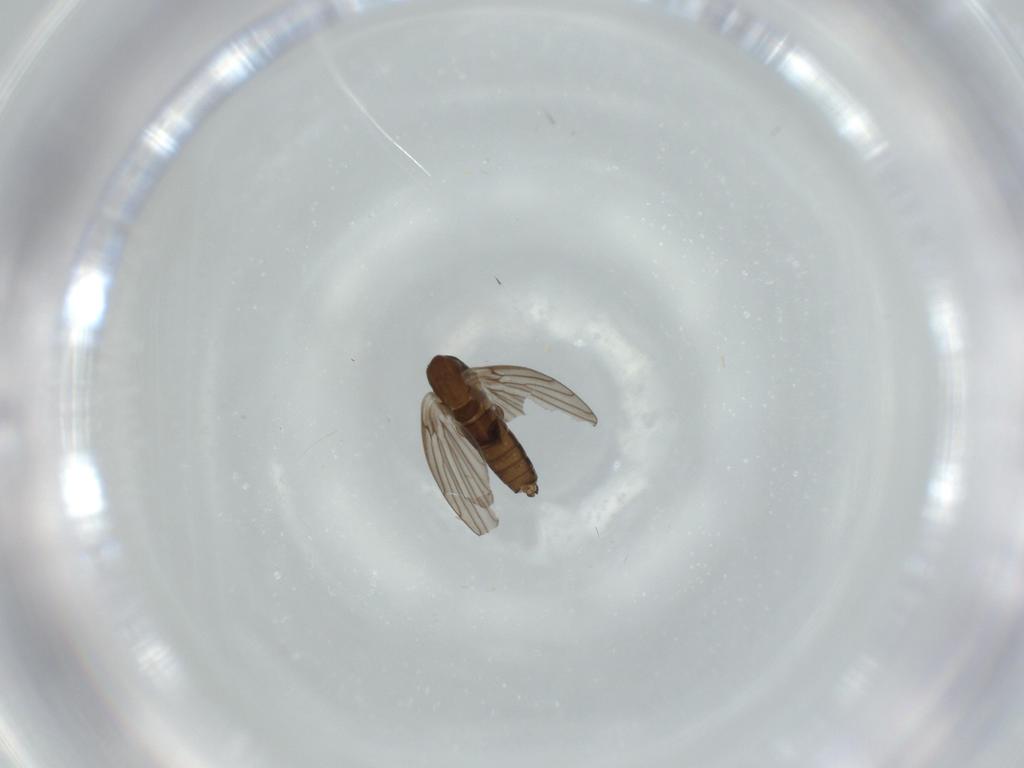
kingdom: Animalia
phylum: Arthropoda
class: Insecta
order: Diptera
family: Psychodidae
